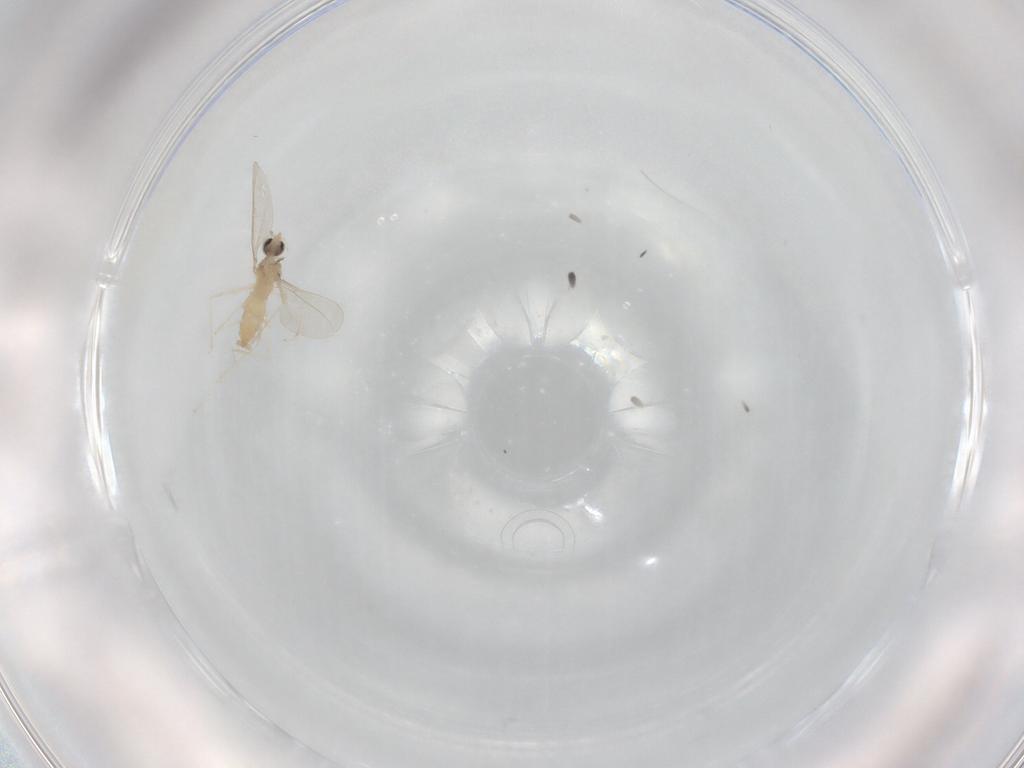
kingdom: Animalia
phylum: Arthropoda
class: Insecta
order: Diptera
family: Cecidomyiidae
